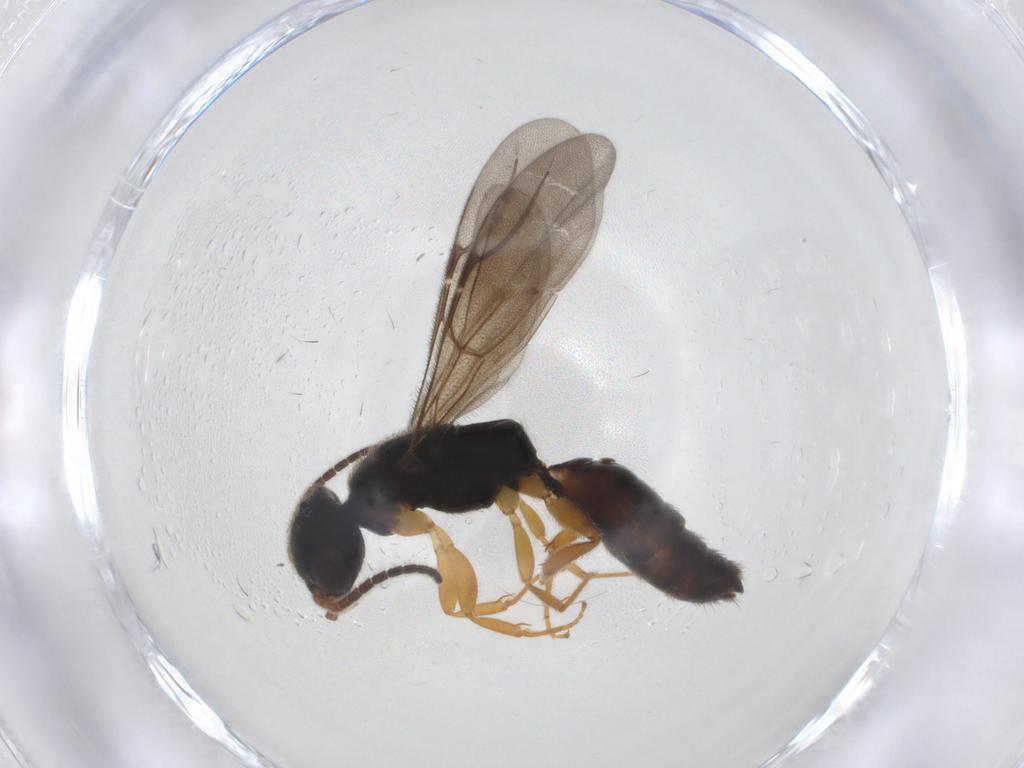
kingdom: Animalia
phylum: Arthropoda
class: Insecta
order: Hymenoptera
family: Bethylidae
